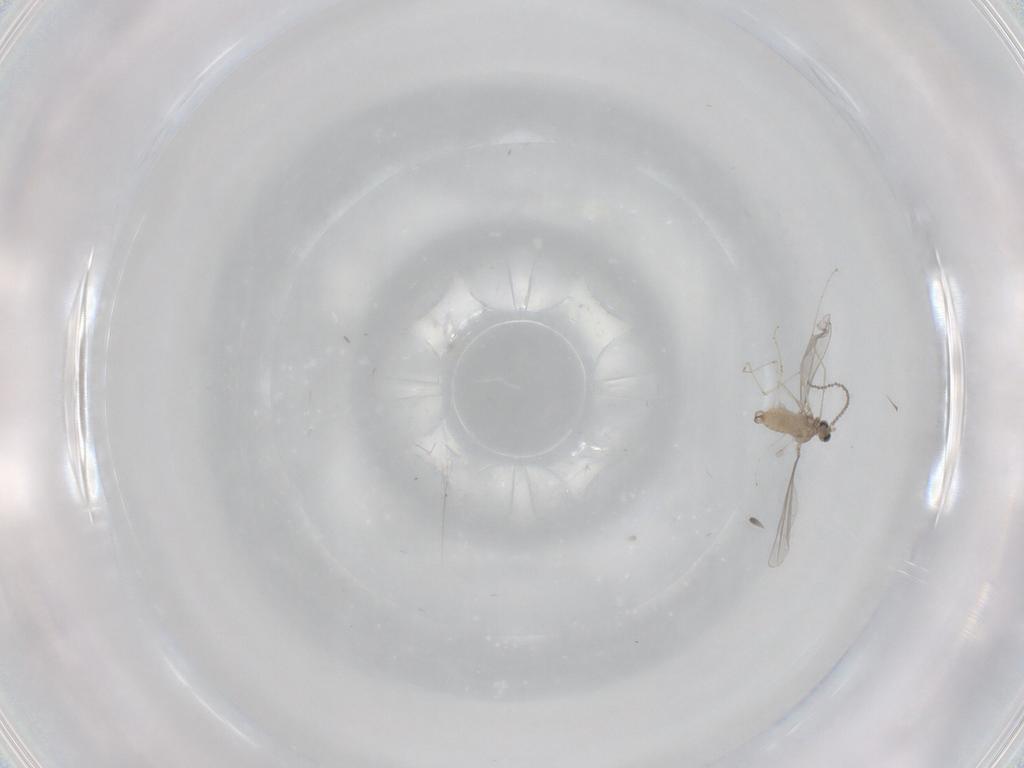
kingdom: Animalia
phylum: Arthropoda
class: Insecta
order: Diptera
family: Cecidomyiidae
